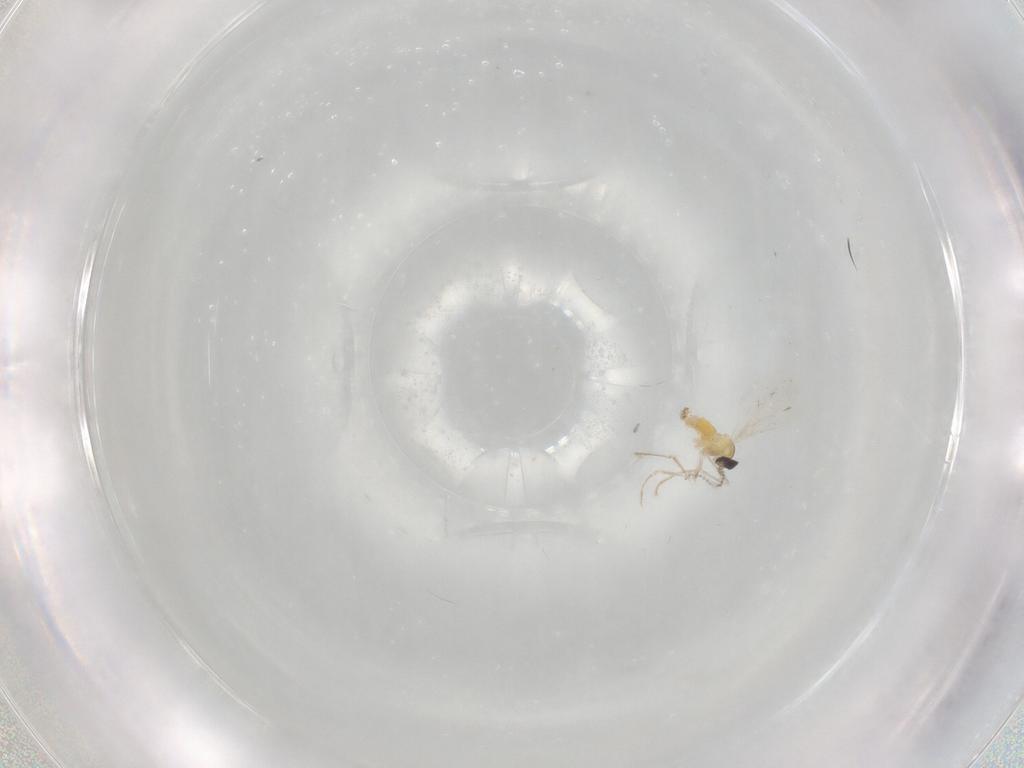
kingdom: Animalia
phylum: Arthropoda
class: Insecta
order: Diptera
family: Cecidomyiidae
